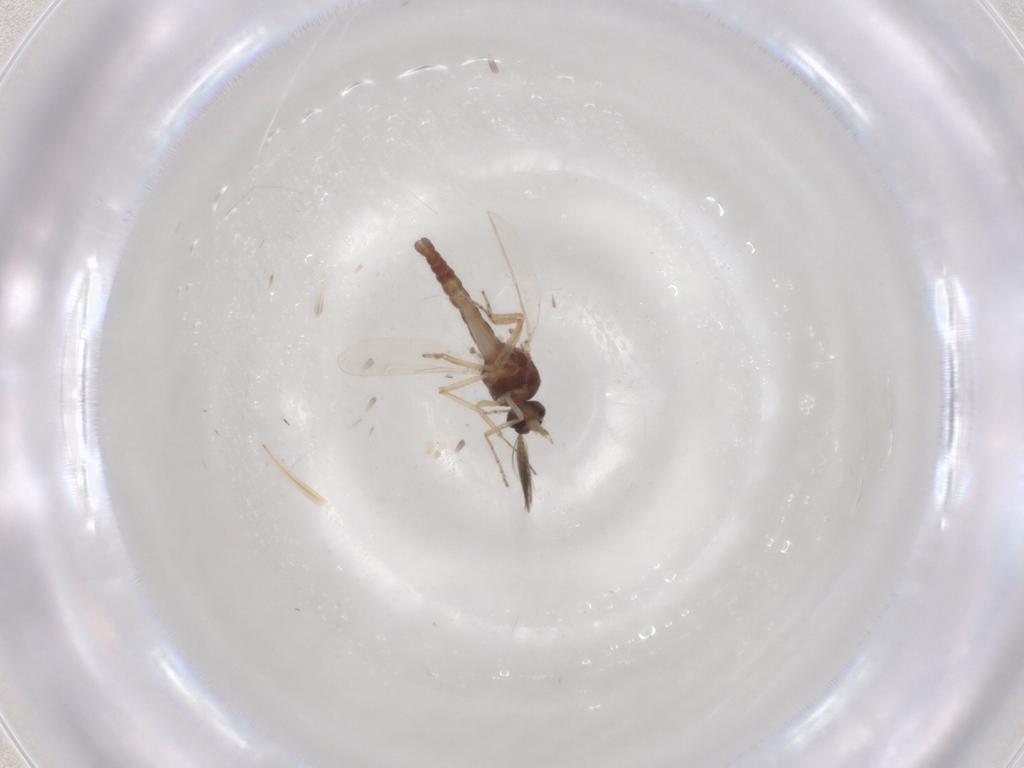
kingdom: Animalia
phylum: Arthropoda
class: Insecta
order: Diptera
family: Ceratopogonidae
